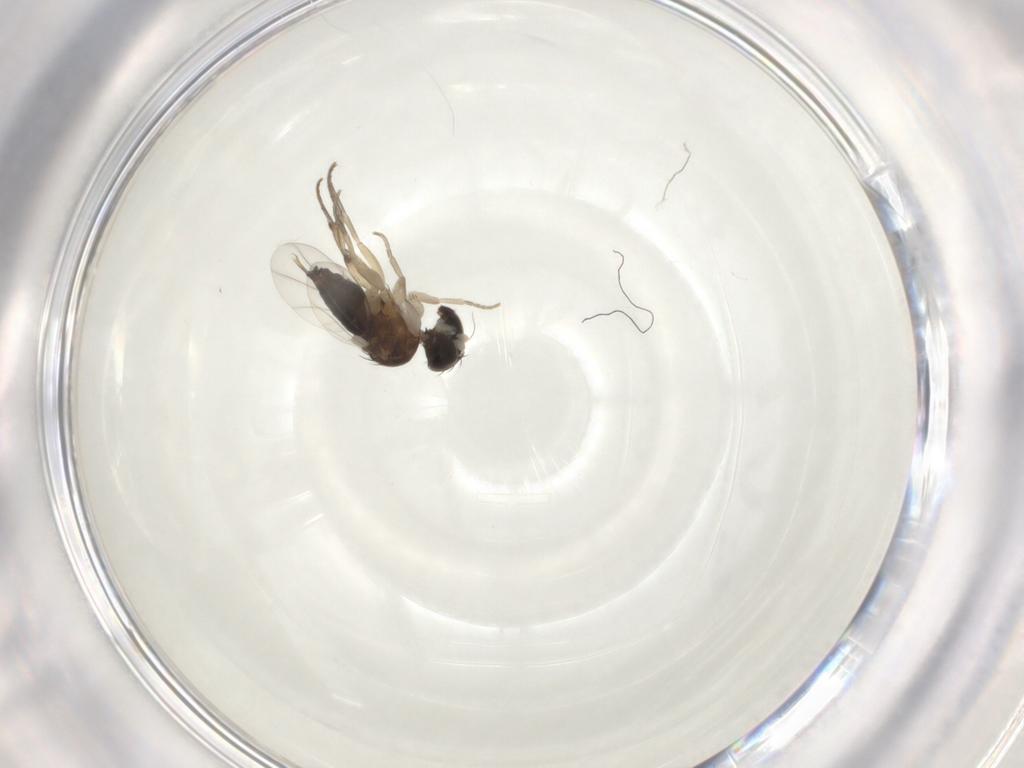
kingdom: Animalia
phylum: Arthropoda
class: Insecta
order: Diptera
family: Phoridae
